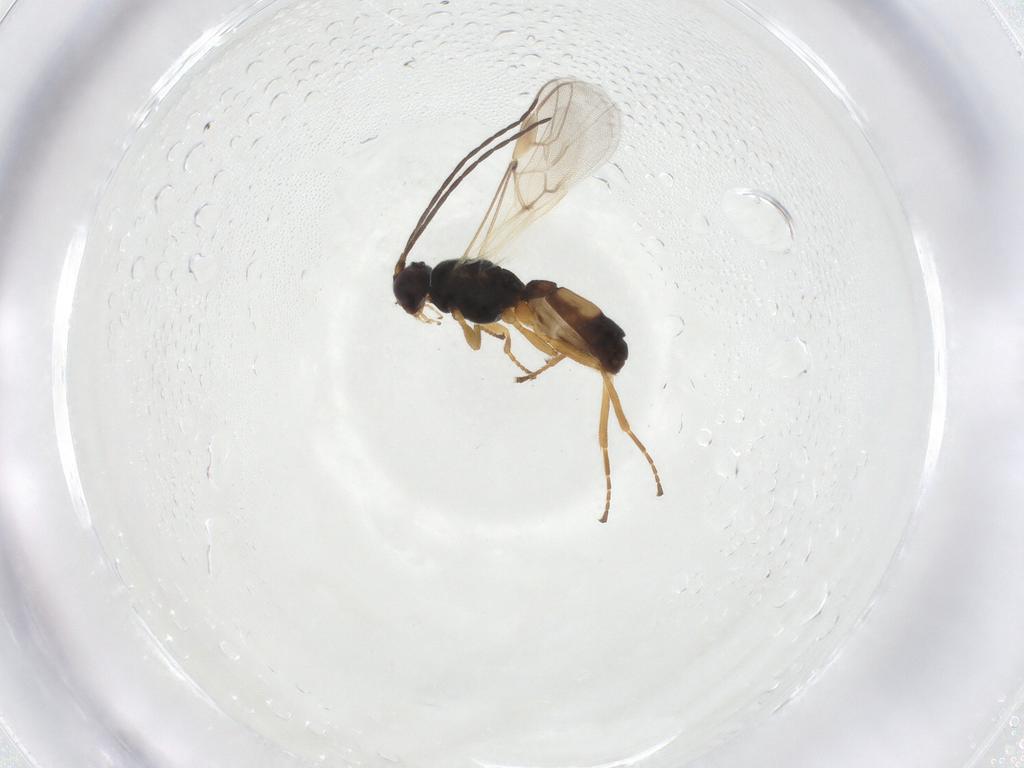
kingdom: Animalia
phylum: Arthropoda
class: Insecta
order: Hymenoptera
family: Braconidae
